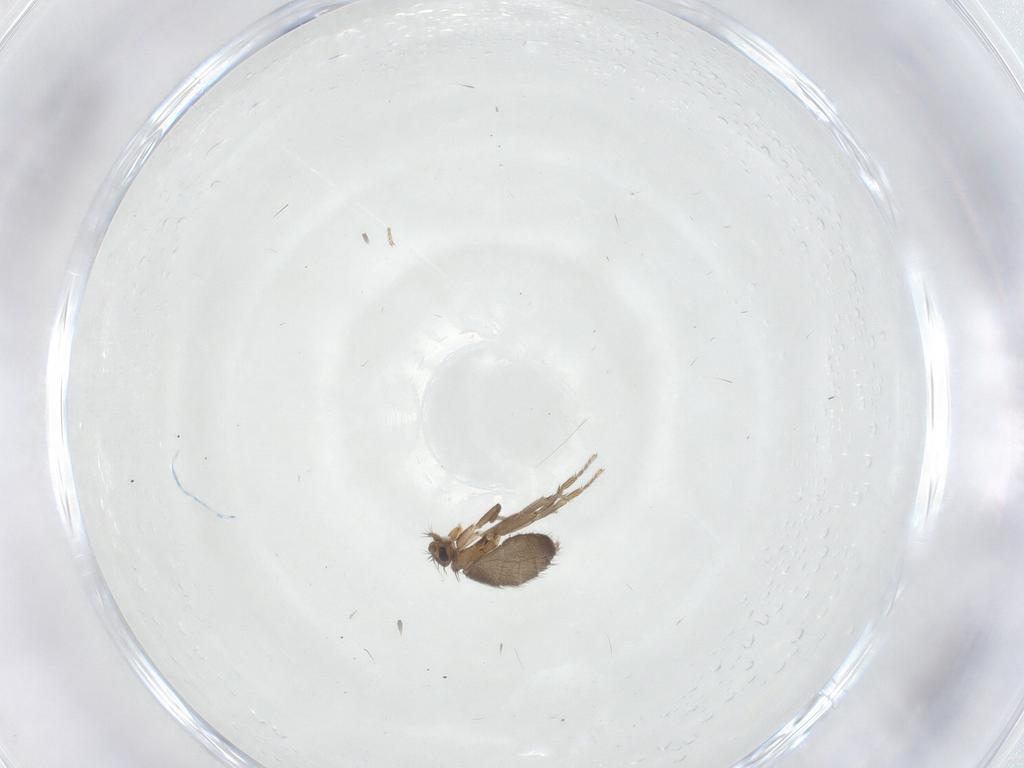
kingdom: Animalia
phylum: Arthropoda
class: Insecta
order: Diptera
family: Phoridae
